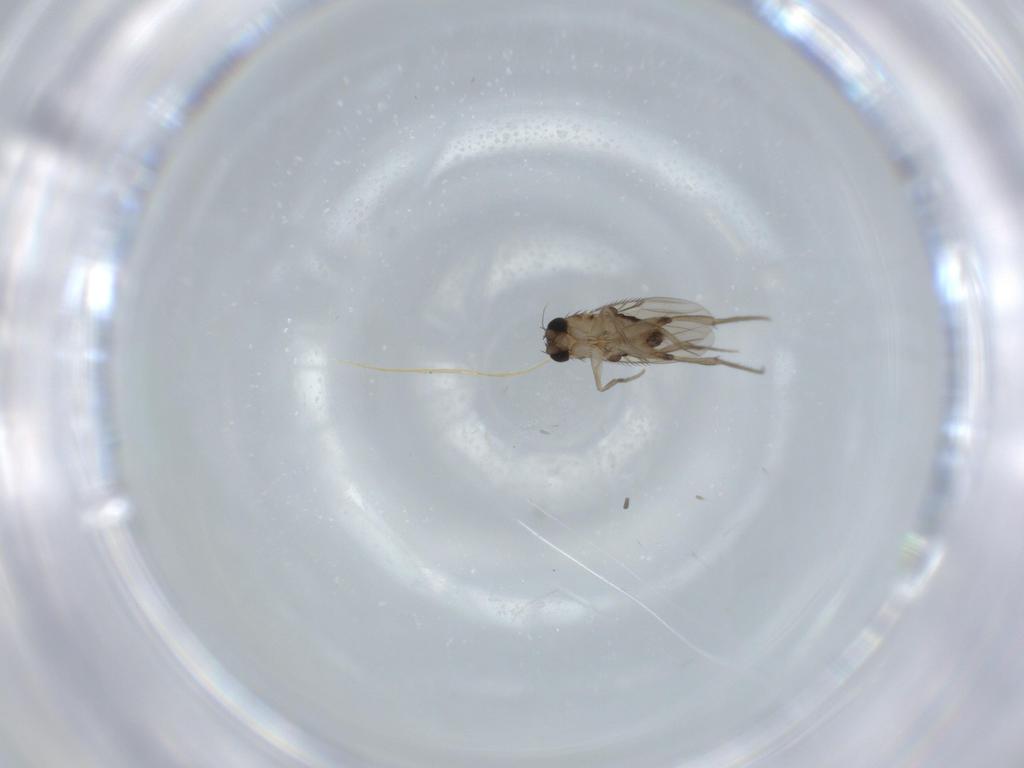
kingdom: Animalia
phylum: Arthropoda
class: Insecta
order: Diptera
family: Phoridae
